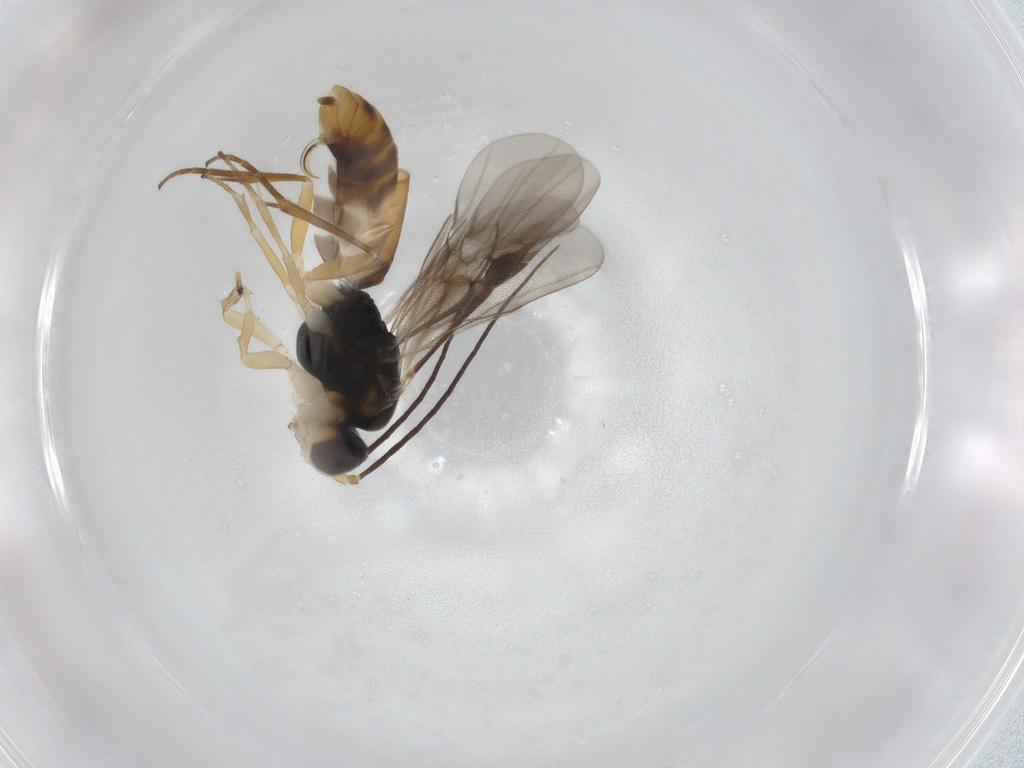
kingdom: Animalia
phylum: Arthropoda
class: Insecta
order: Hymenoptera
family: Braconidae
